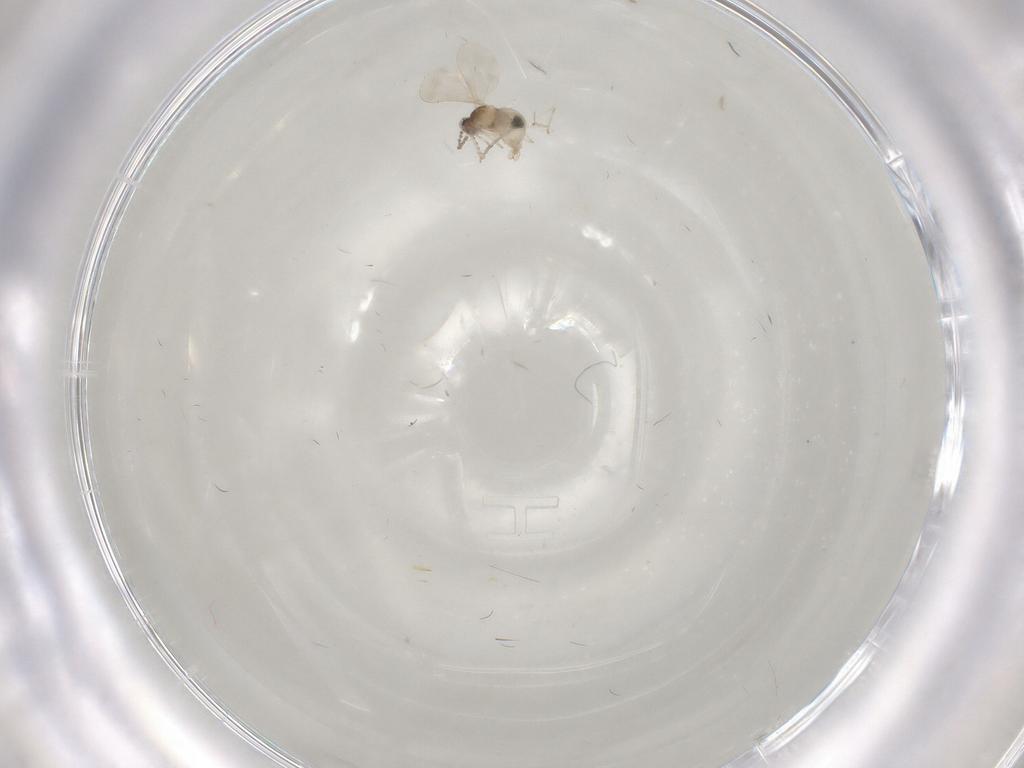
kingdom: Animalia
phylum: Arthropoda
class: Insecta
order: Diptera
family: Cecidomyiidae
